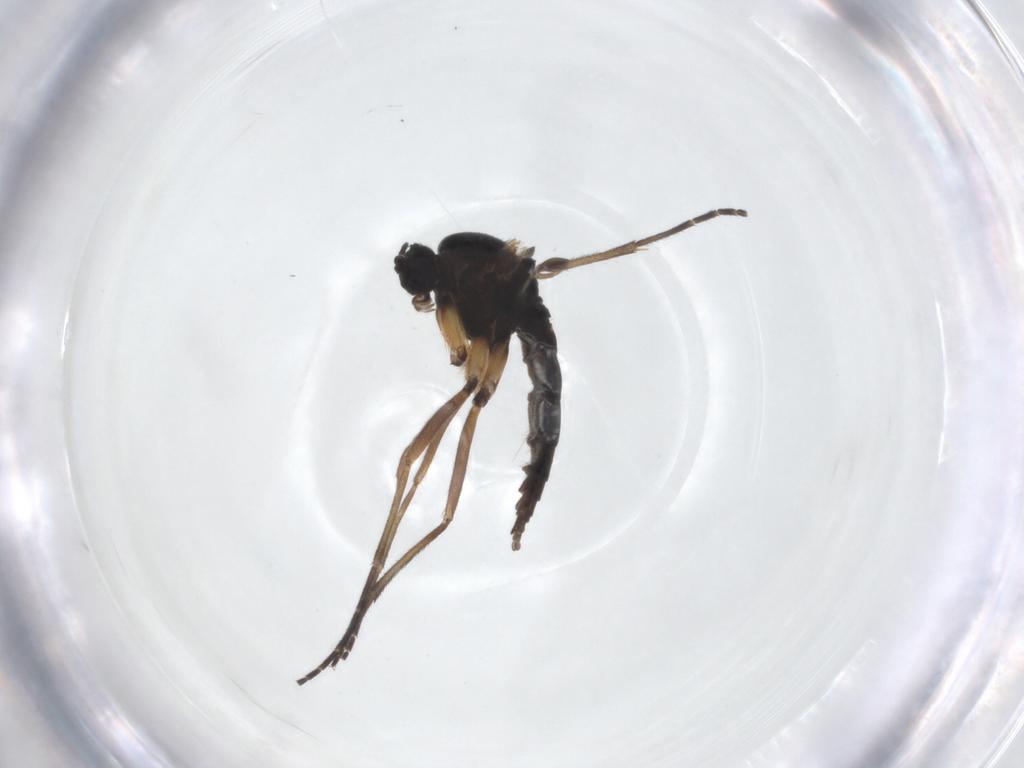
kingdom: Animalia
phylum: Arthropoda
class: Insecta
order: Diptera
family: Sciaridae
